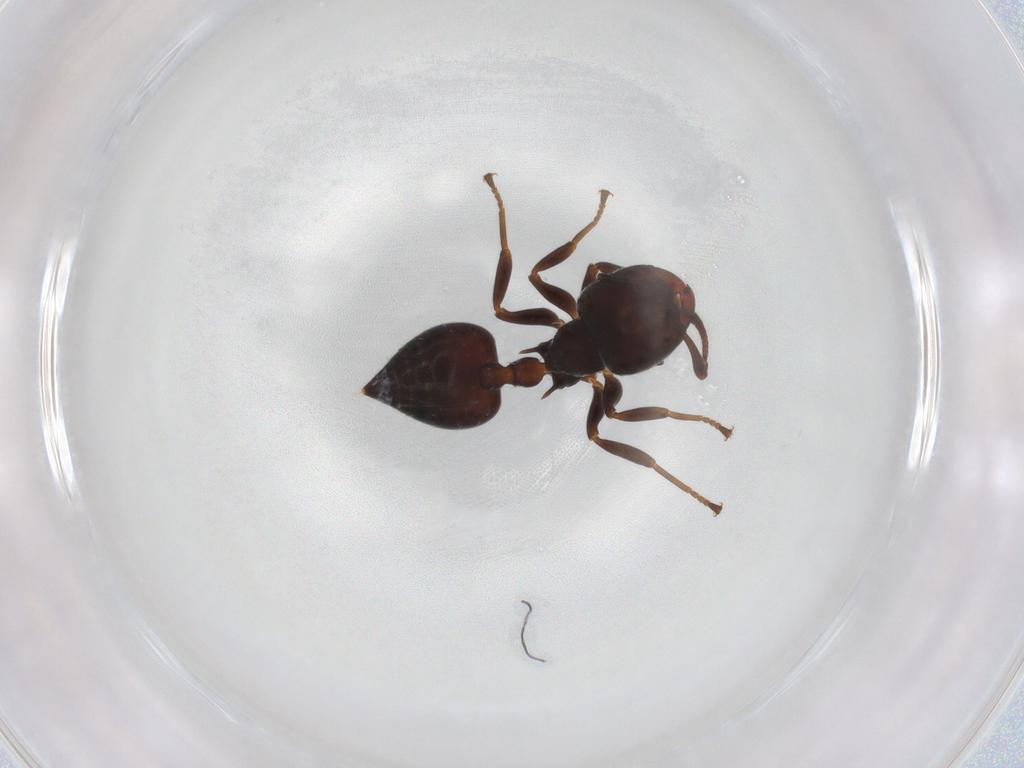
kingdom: Animalia
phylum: Arthropoda
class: Insecta
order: Hymenoptera
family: Formicidae
